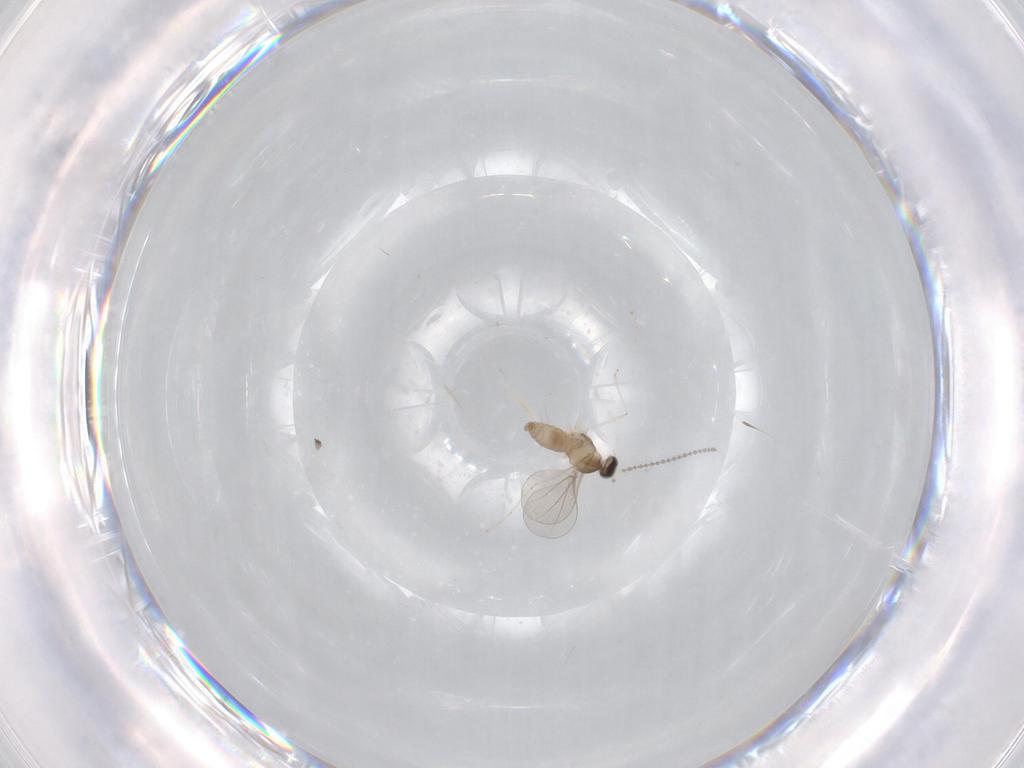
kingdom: Animalia
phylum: Arthropoda
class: Insecta
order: Diptera
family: Cecidomyiidae
